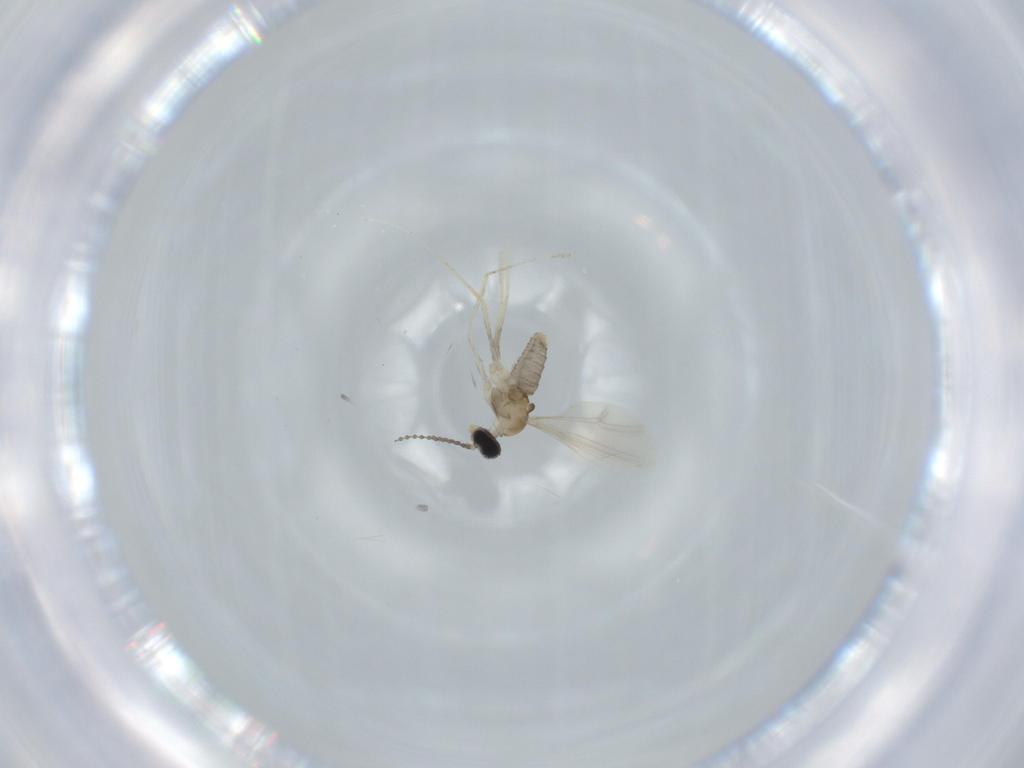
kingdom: Animalia
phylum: Arthropoda
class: Insecta
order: Diptera
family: Cecidomyiidae
